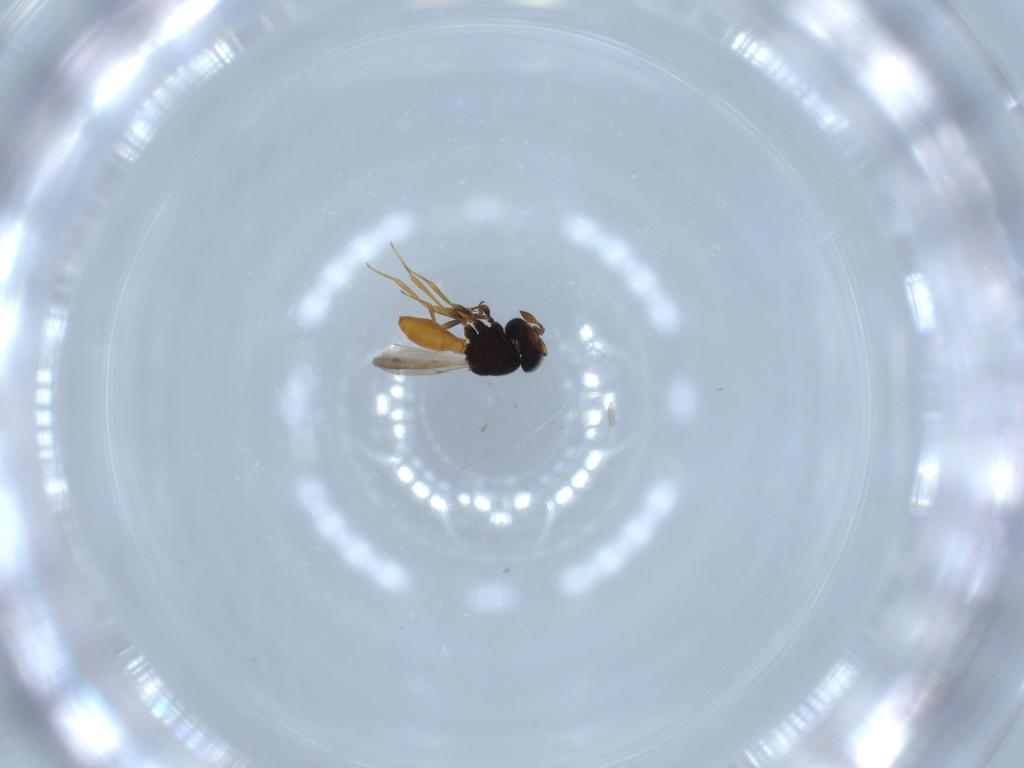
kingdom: Animalia
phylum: Arthropoda
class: Insecta
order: Hymenoptera
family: Scelionidae
